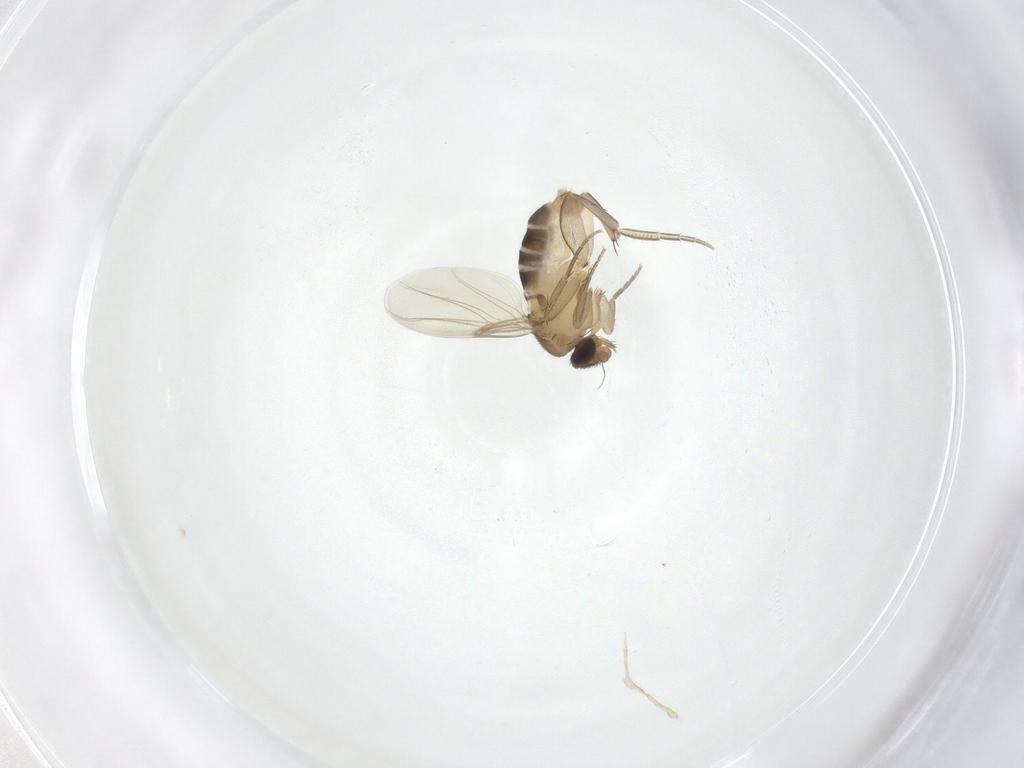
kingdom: Animalia
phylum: Arthropoda
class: Insecta
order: Diptera
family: Phoridae
